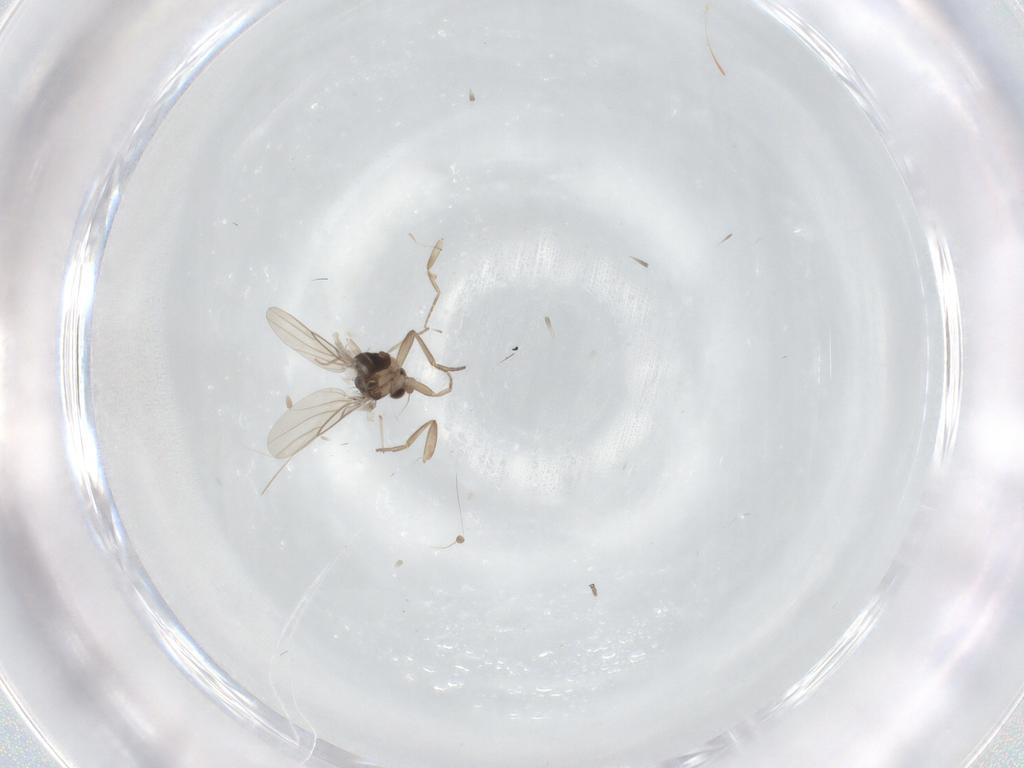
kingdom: Animalia
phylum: Arthropoda
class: Insecta
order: Diptera
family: Phoridae
